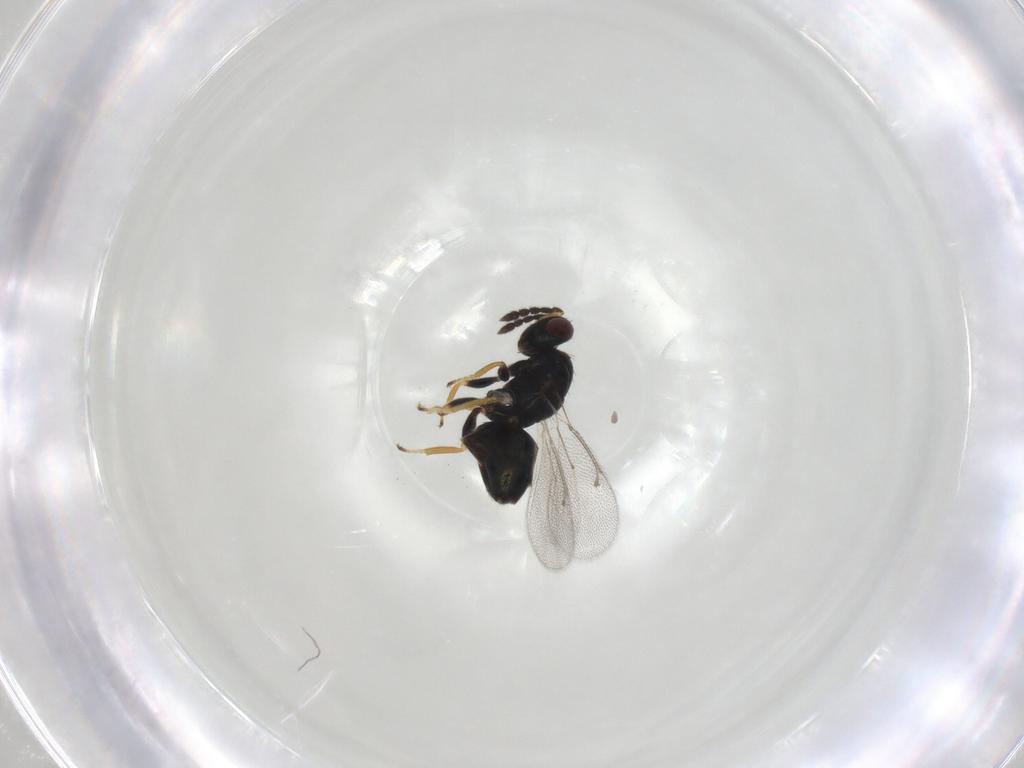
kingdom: Animalia
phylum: Arthropoda
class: Insecta
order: Hymenoptera
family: Eulophidae
